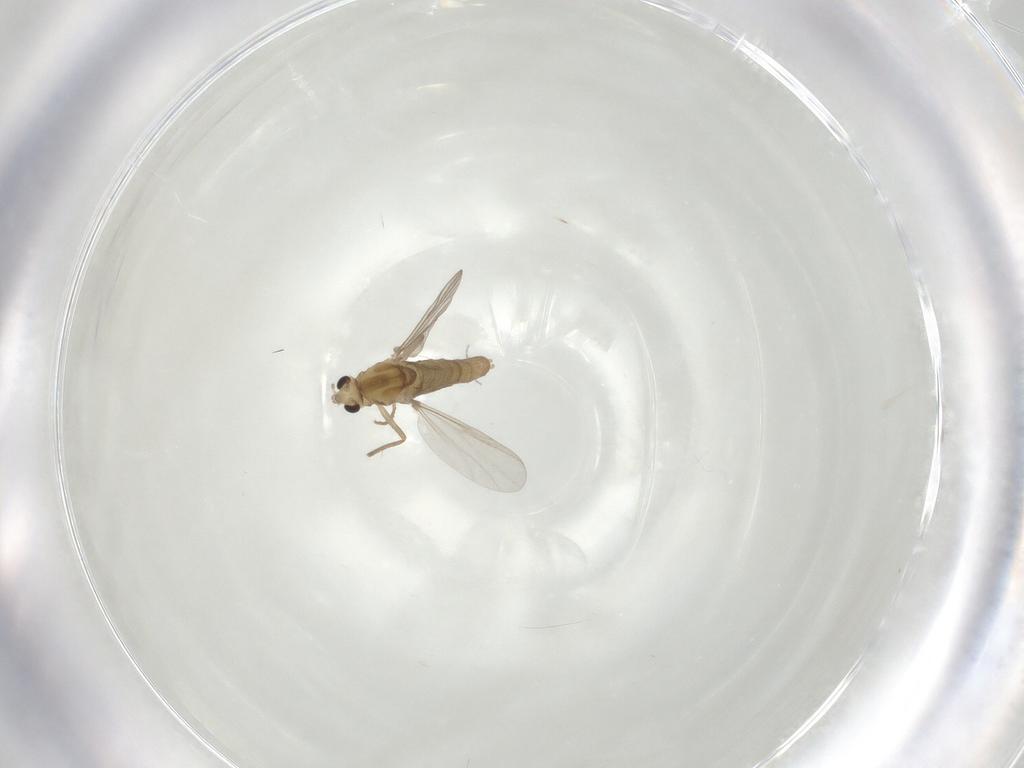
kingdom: Animalia
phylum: Arthropoda
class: Insecta
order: Diptera
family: Chironomidae
